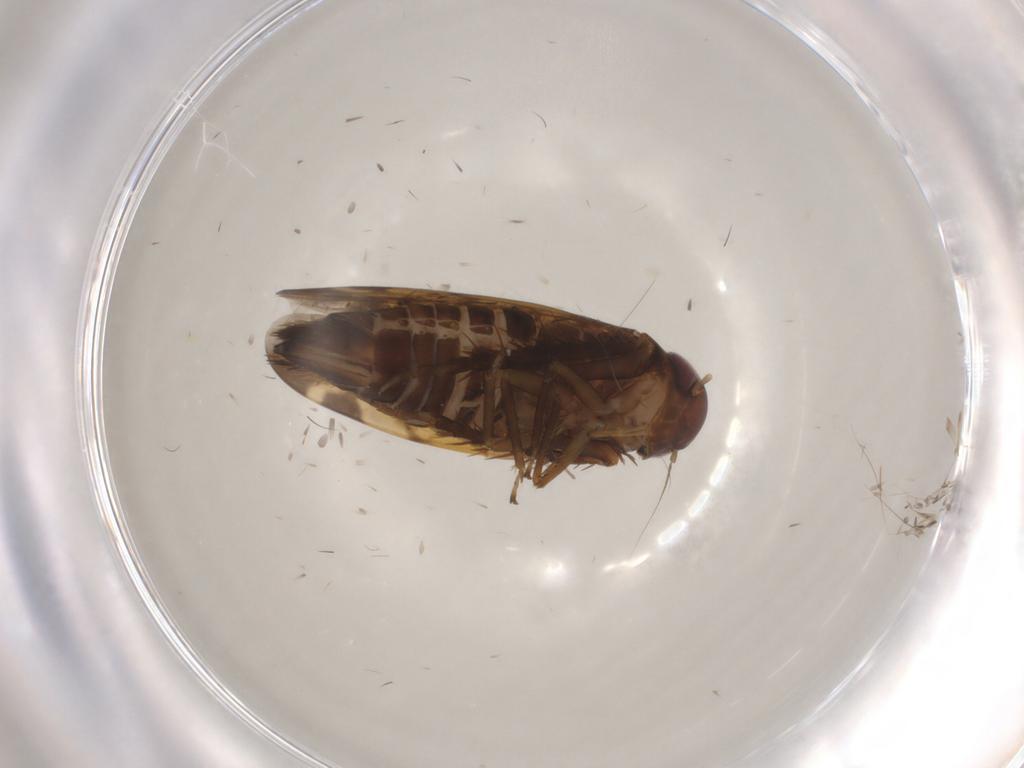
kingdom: Animalia
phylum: Arthropoda
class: Insecta
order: Hemiptera
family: Cicadellidae
